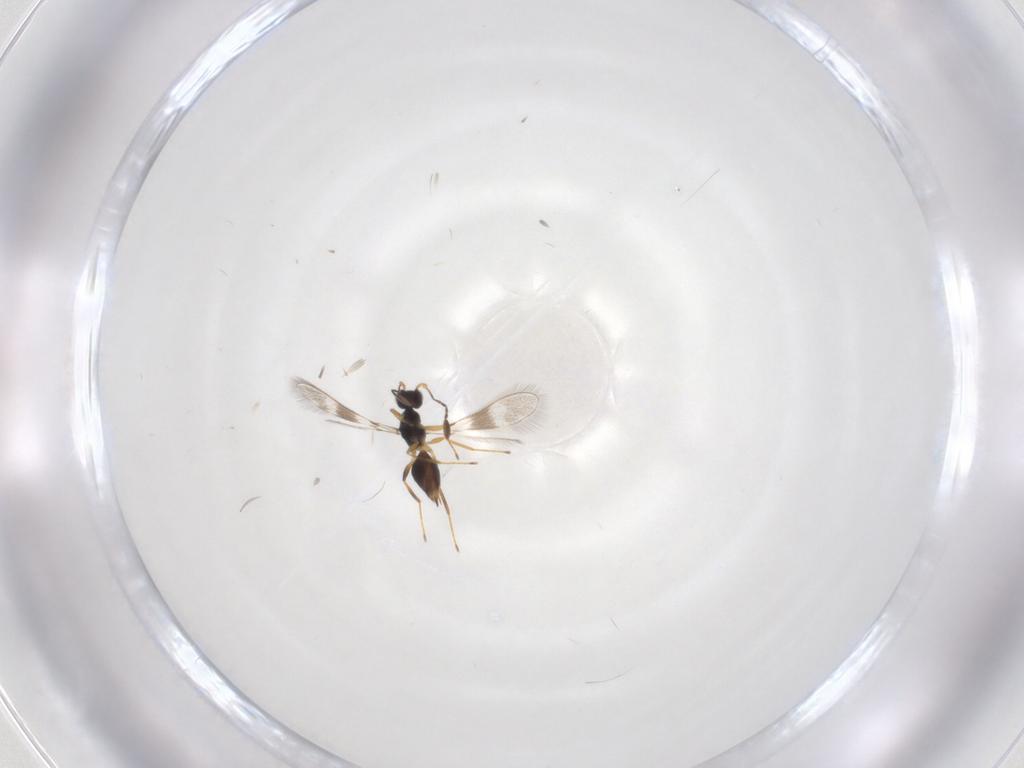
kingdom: Animalia
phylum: Arthropoda
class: Insecta
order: Hymenoptera
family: Mymaridae
